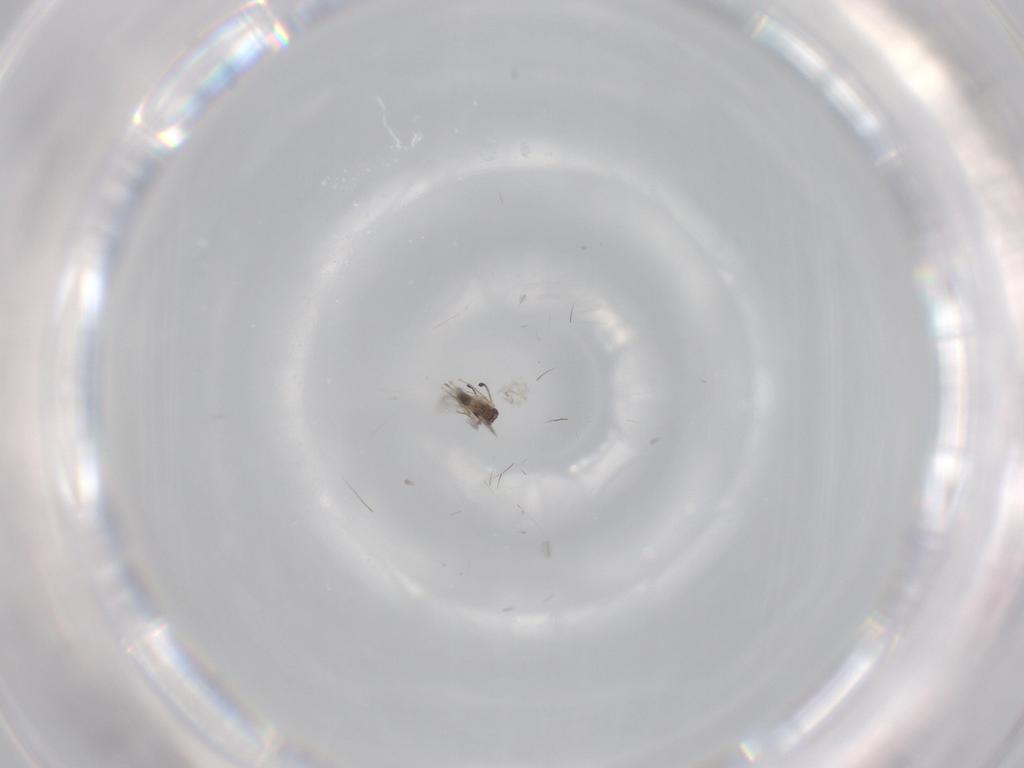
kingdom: Animalia
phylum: Arthropoda
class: Insecta
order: Hymenoptera
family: Mymaridae
